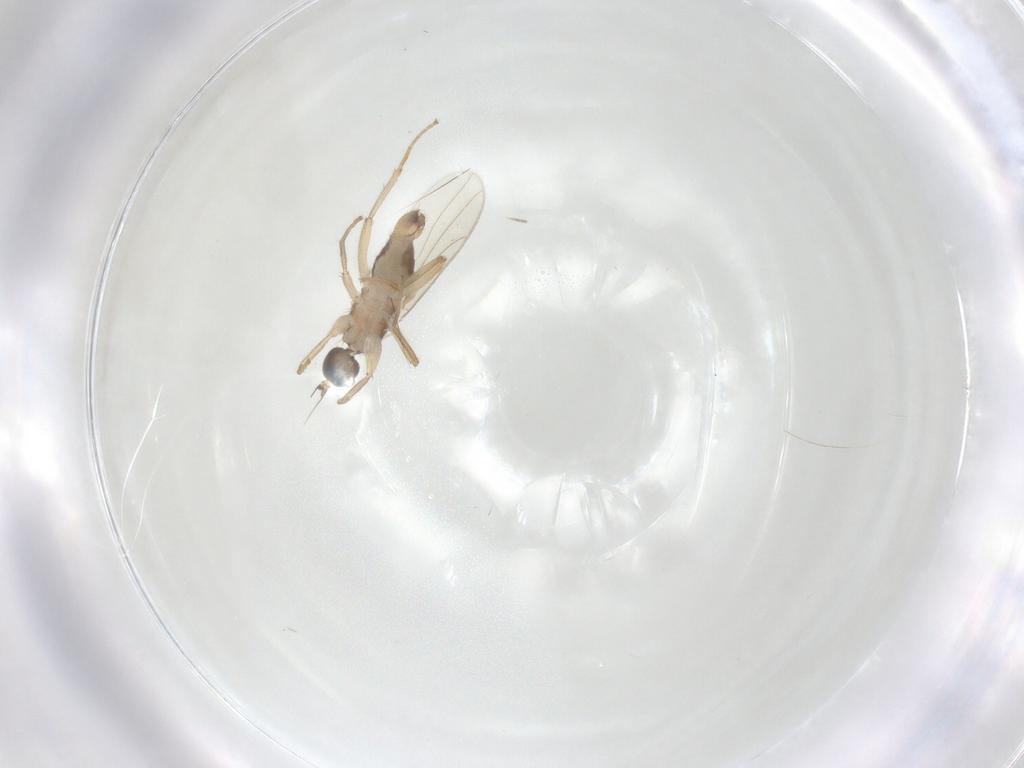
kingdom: Animalia
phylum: Arthropoda
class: Insecta
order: Diptera
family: Hybotidae
